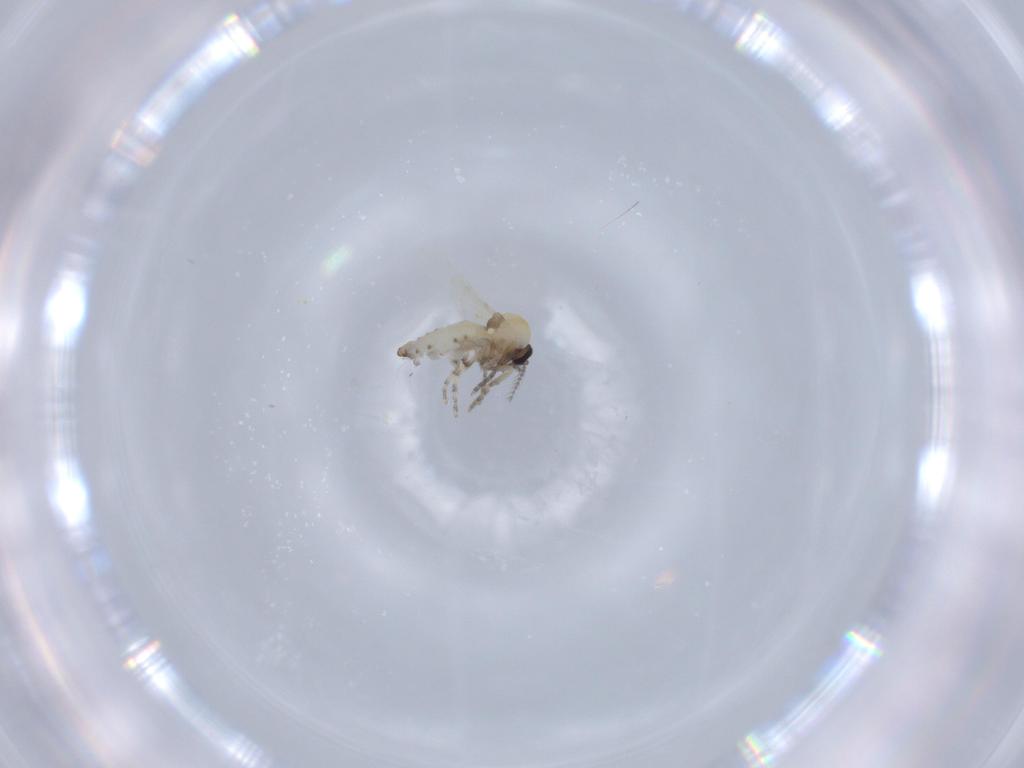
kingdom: Animalia
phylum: Arthropoda
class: Insecta
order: Diptera
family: Ceratopogonidae
